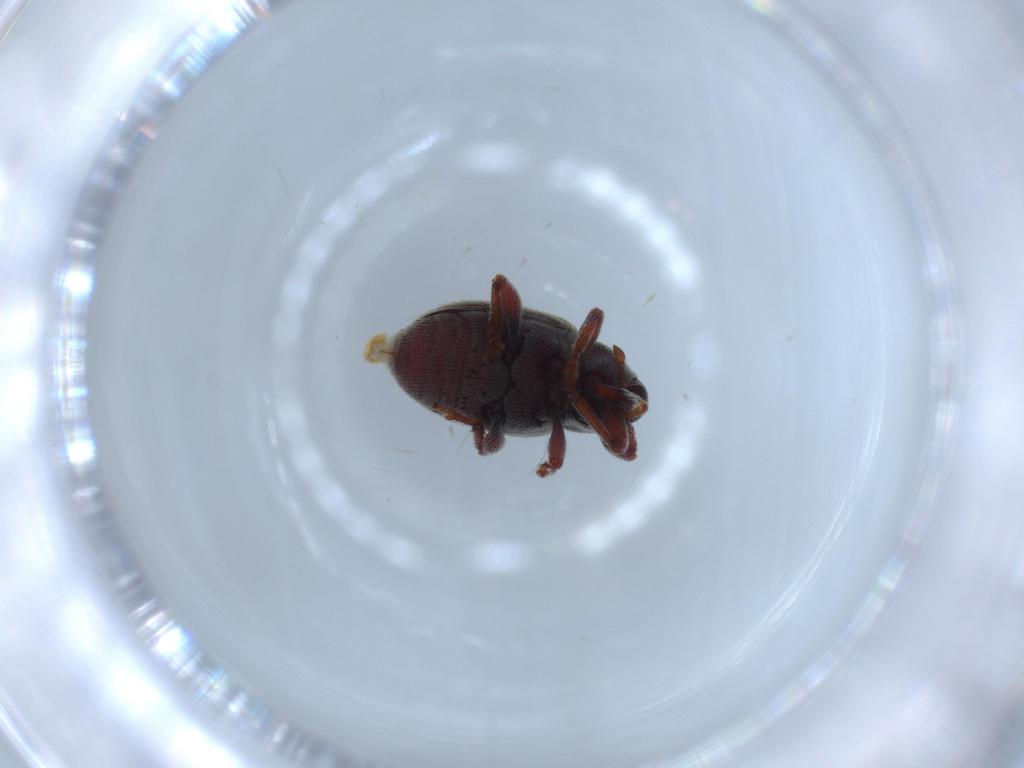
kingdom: Animalia
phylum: Arthropoda
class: Insecta
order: Coleoptera
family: Curculionidae
